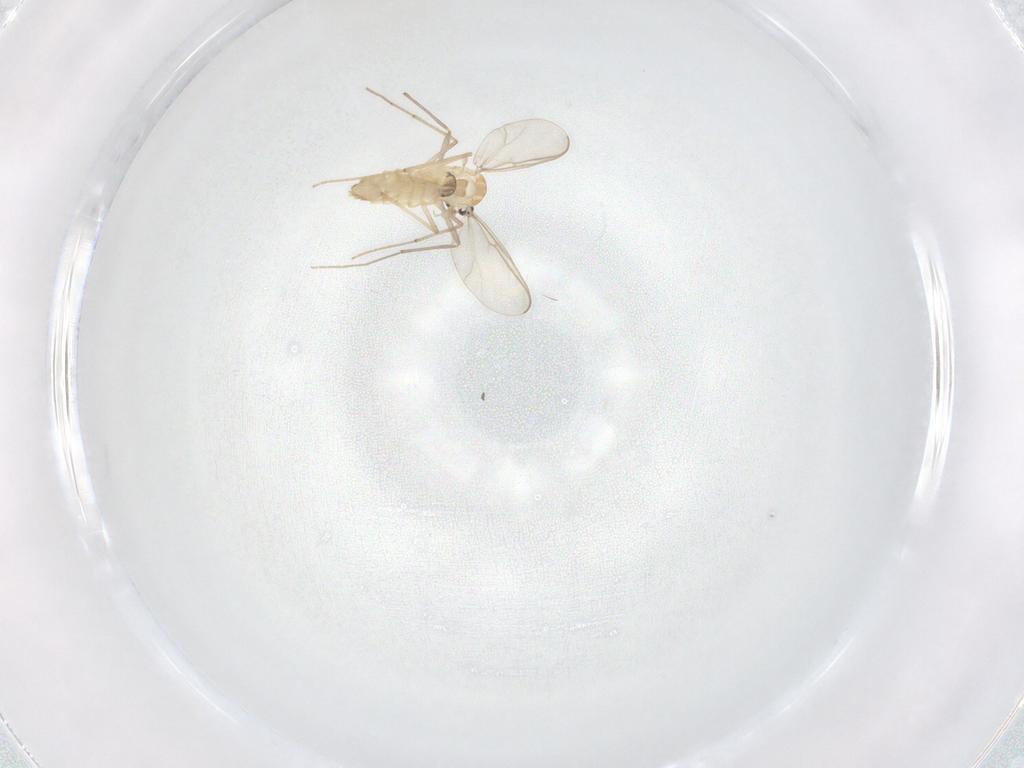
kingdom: Animalia
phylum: Arthropoda
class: Insecta
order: Diptera
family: Chironomidae
